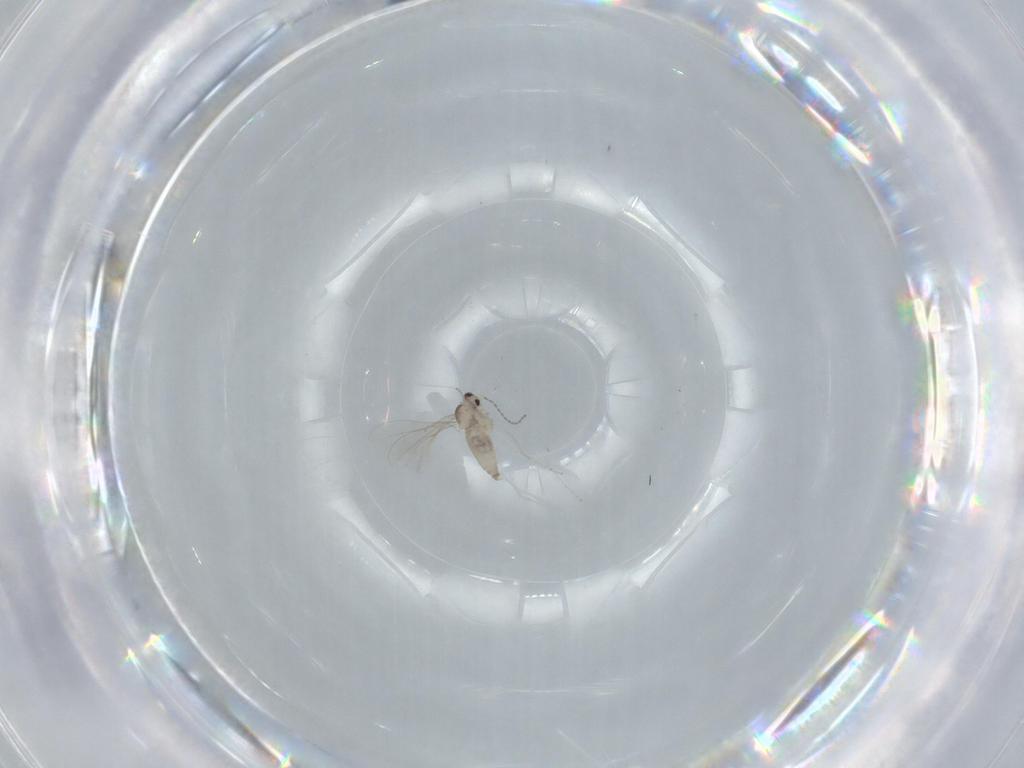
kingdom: Animalia
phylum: Arthropoda
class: Insecta
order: Diptera
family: Cecidomyiidae
